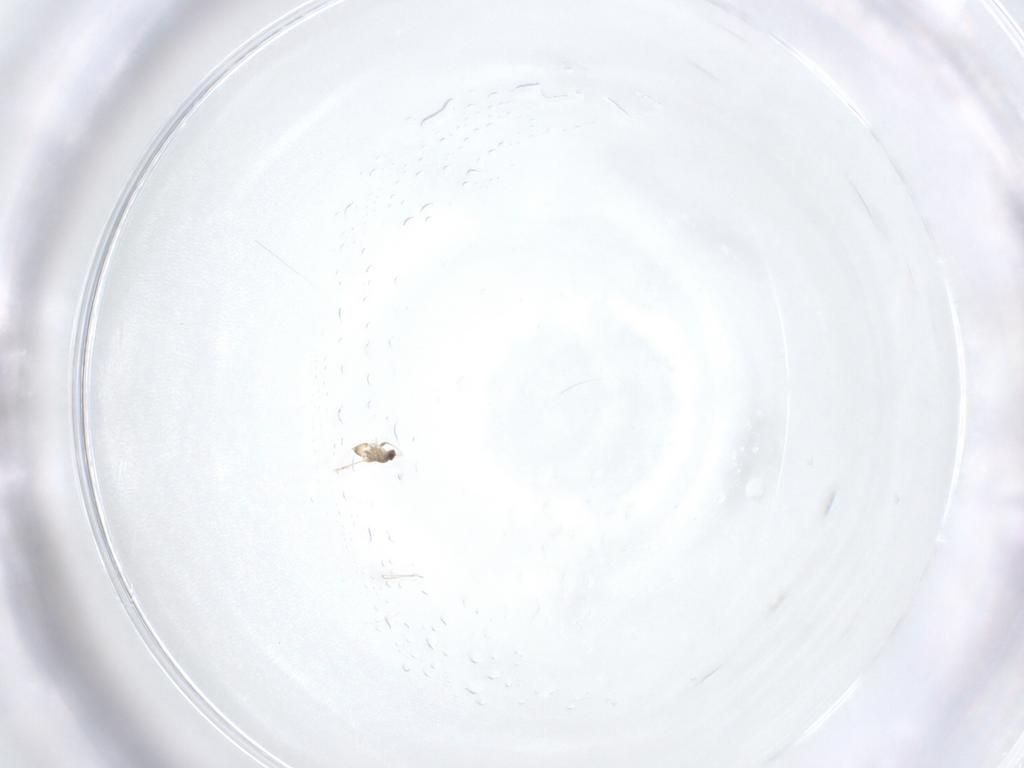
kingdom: Animalia
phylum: Arthropoda
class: Insecta
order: Hymenoptera
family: Mymaridae
